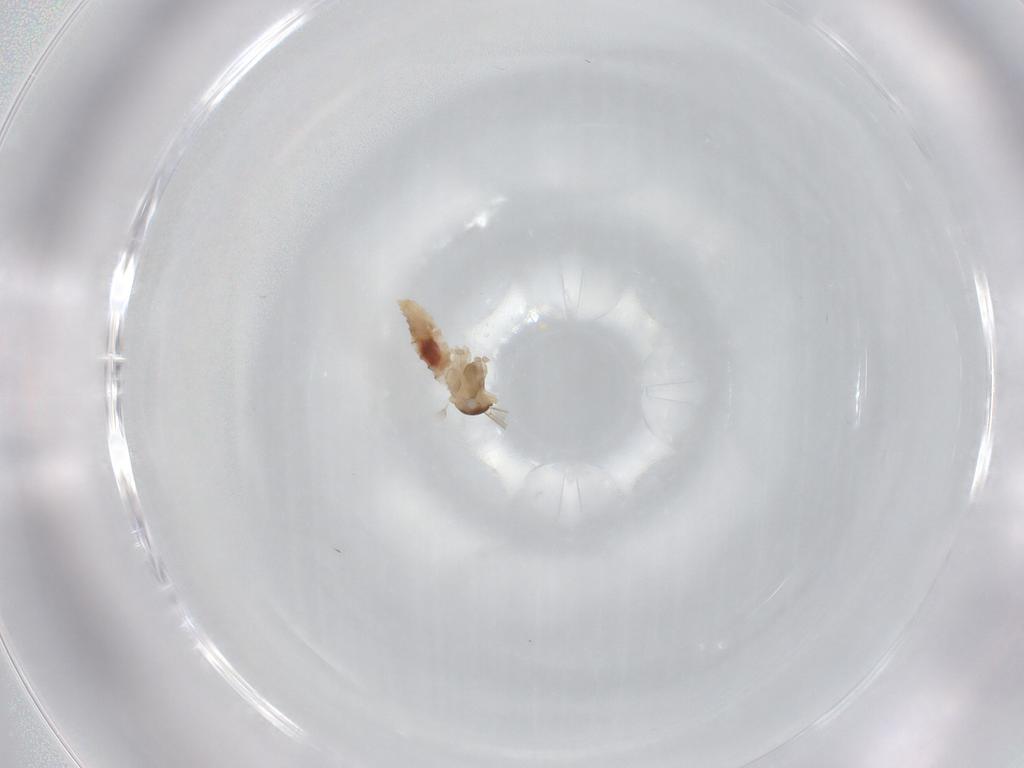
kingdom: Animalia
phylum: Arthropoda
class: Insecta
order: Diptera
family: Cecidomyiidae
